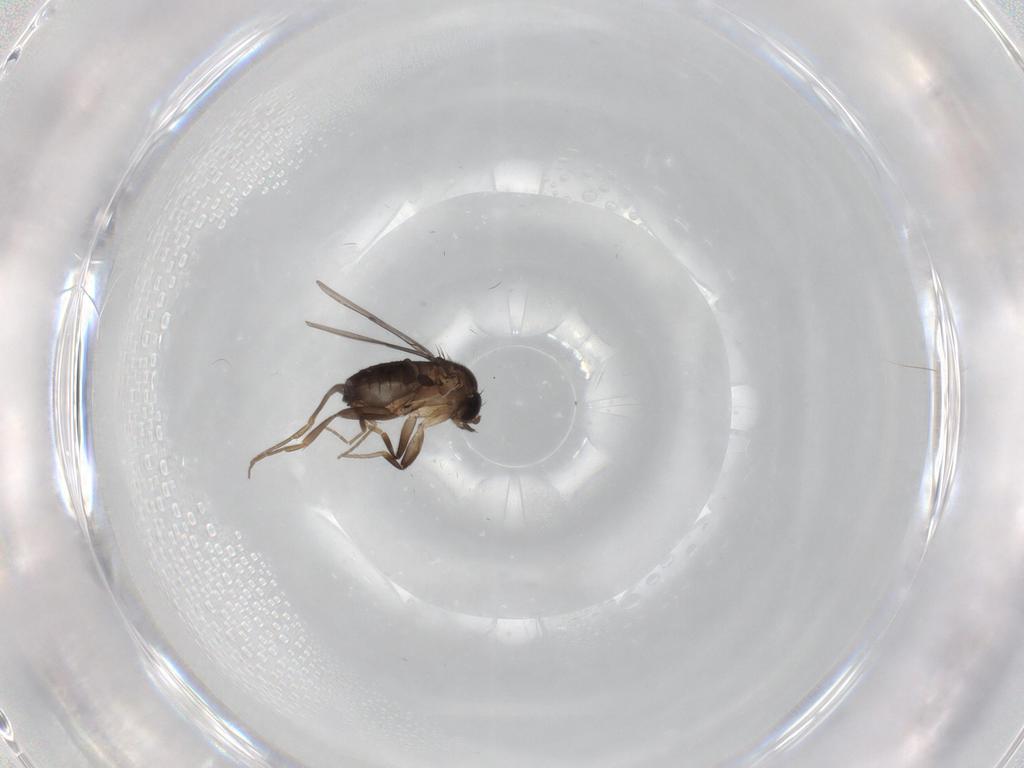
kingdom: Animalia
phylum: Arthropoda
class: Insecta
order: Diptera
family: Phoridae
